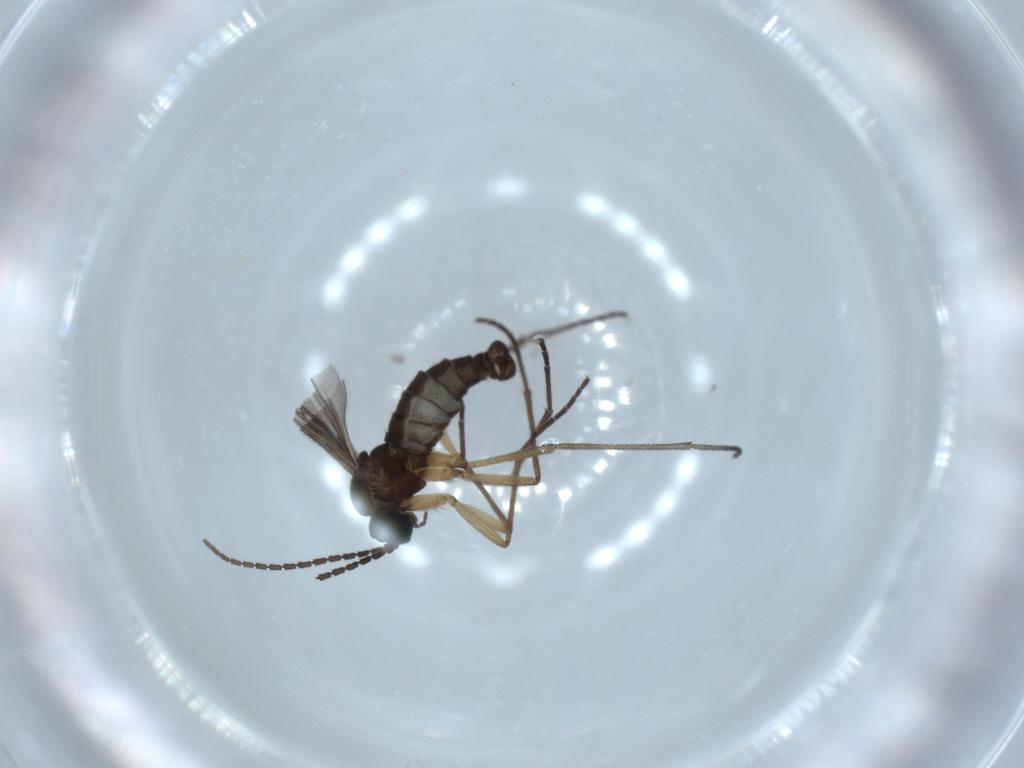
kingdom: Animalia
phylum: Arthropoda
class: Insecta
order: Diptera
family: Sciaridae
